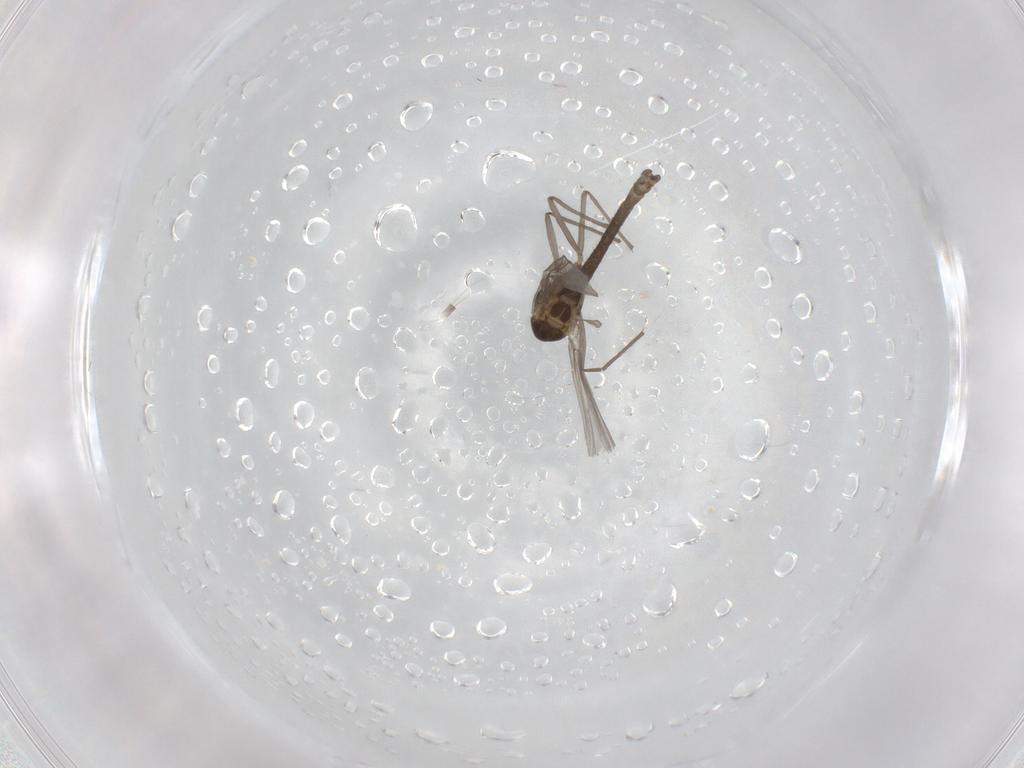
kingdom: Animalia
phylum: Arthropoda
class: Insecta
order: Diptera
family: Chironomidae
